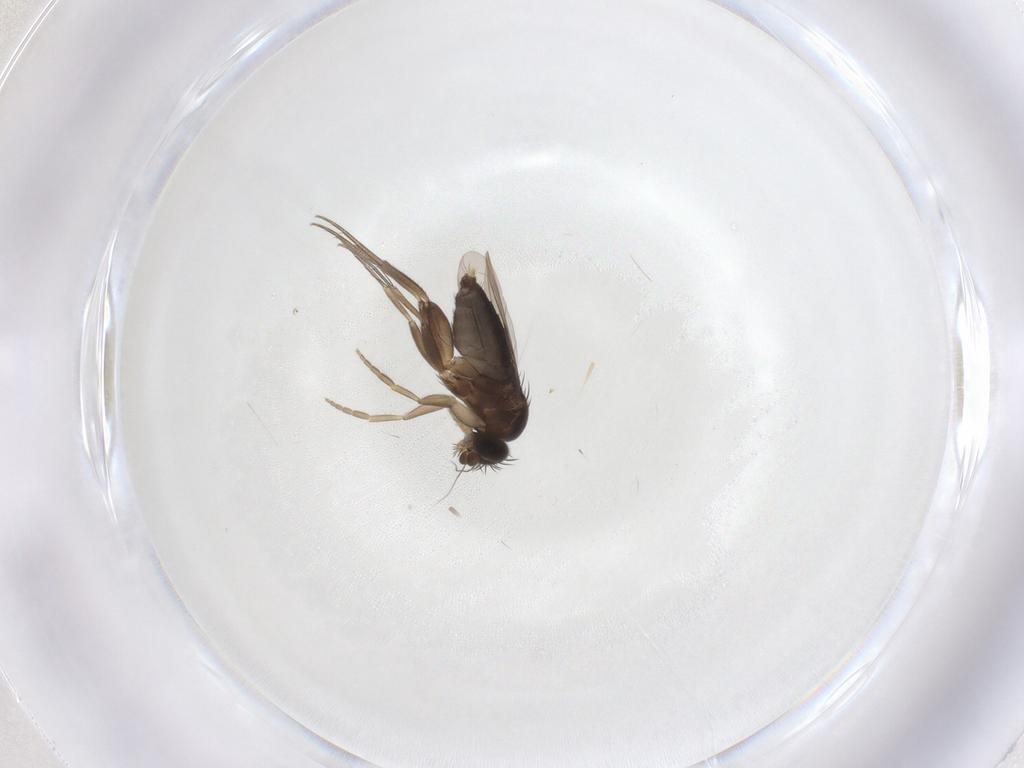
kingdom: Animalia
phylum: Arthropoda
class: Insecta
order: Diptera
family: Phoridae
